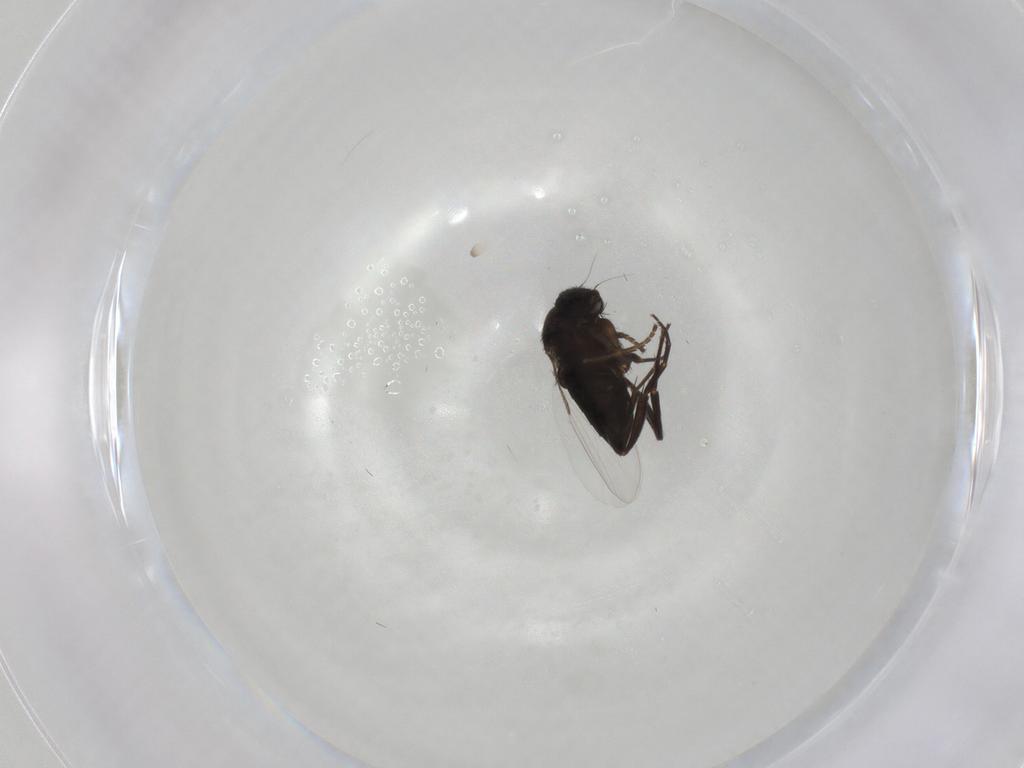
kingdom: Animalia
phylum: Arthropoda
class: Insecta
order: Diptera
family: Phoridae
